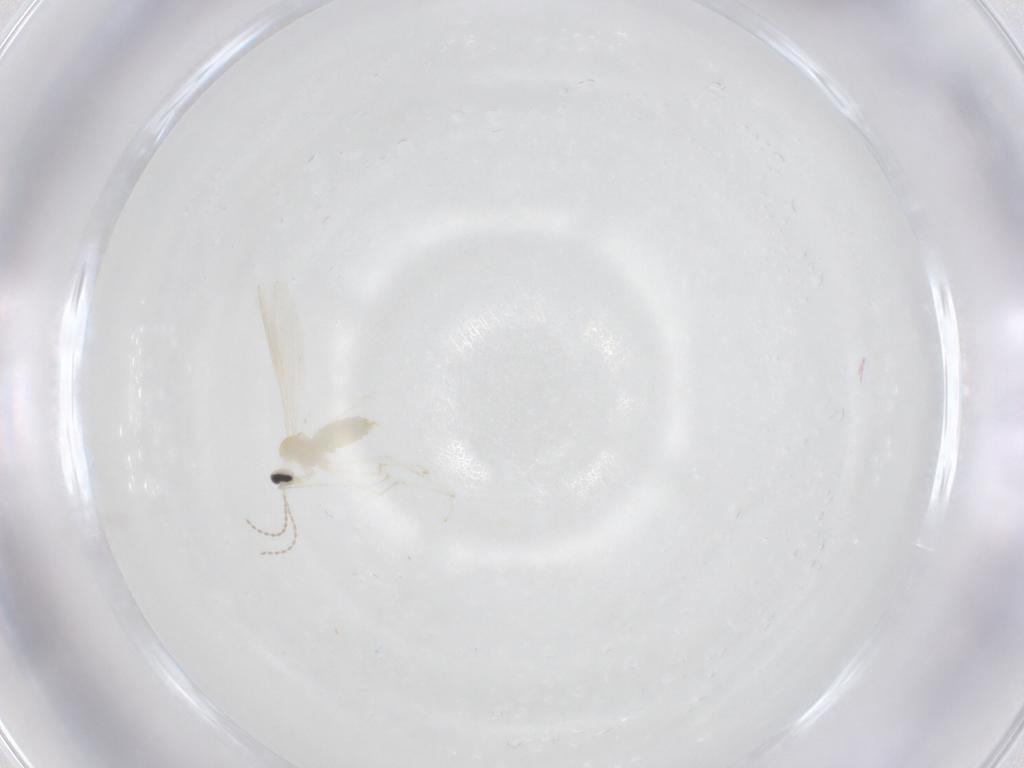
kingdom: Animalia
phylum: Arthropoda
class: Insecta
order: Diptera
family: Cecidomyiidae
